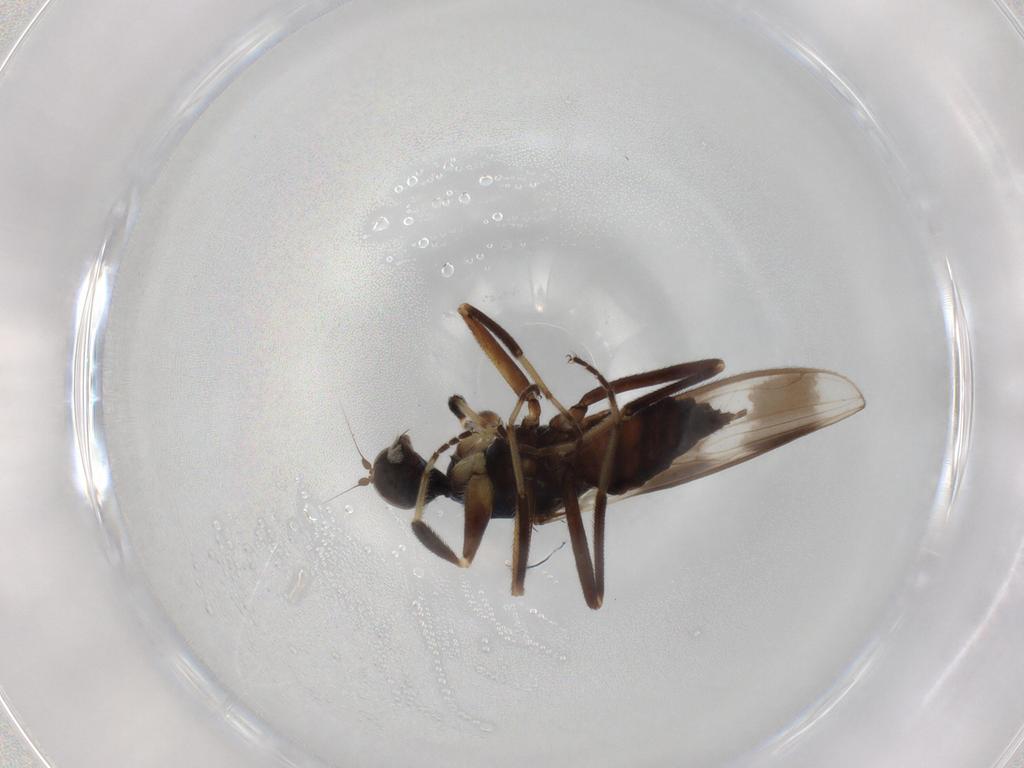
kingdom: Animalia
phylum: Arthropoda
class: Insecta
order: Diptera
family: Hybotidae
